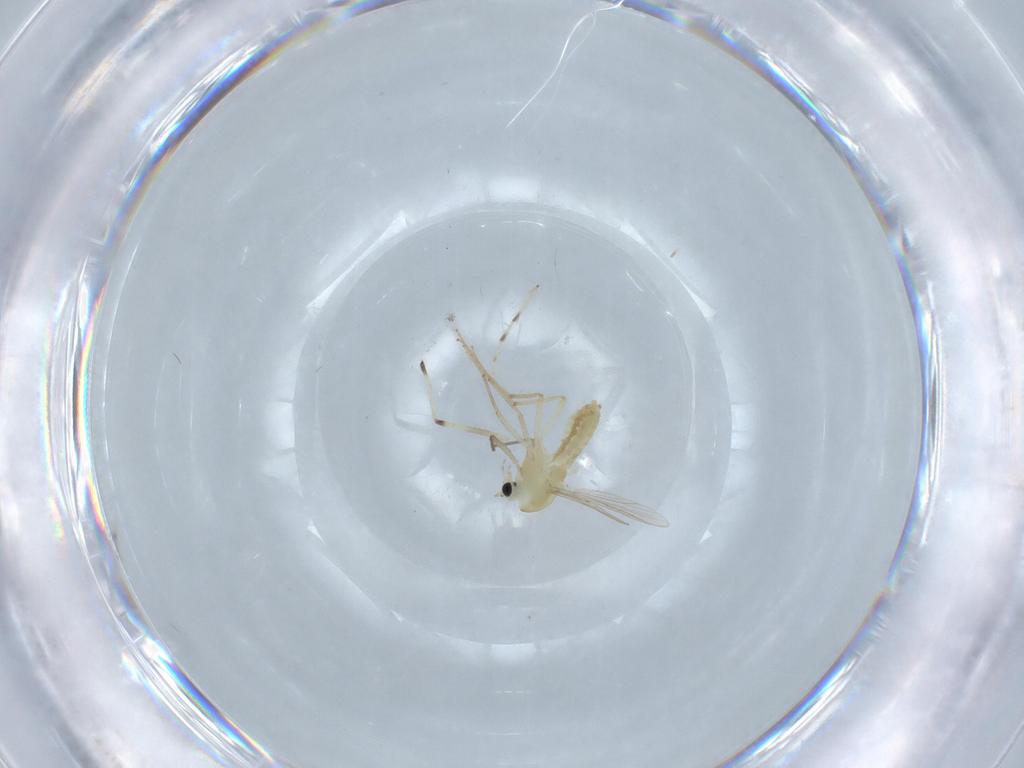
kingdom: Animalia
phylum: Arthropoda
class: Insecta
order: Diptera
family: Chironomidae
